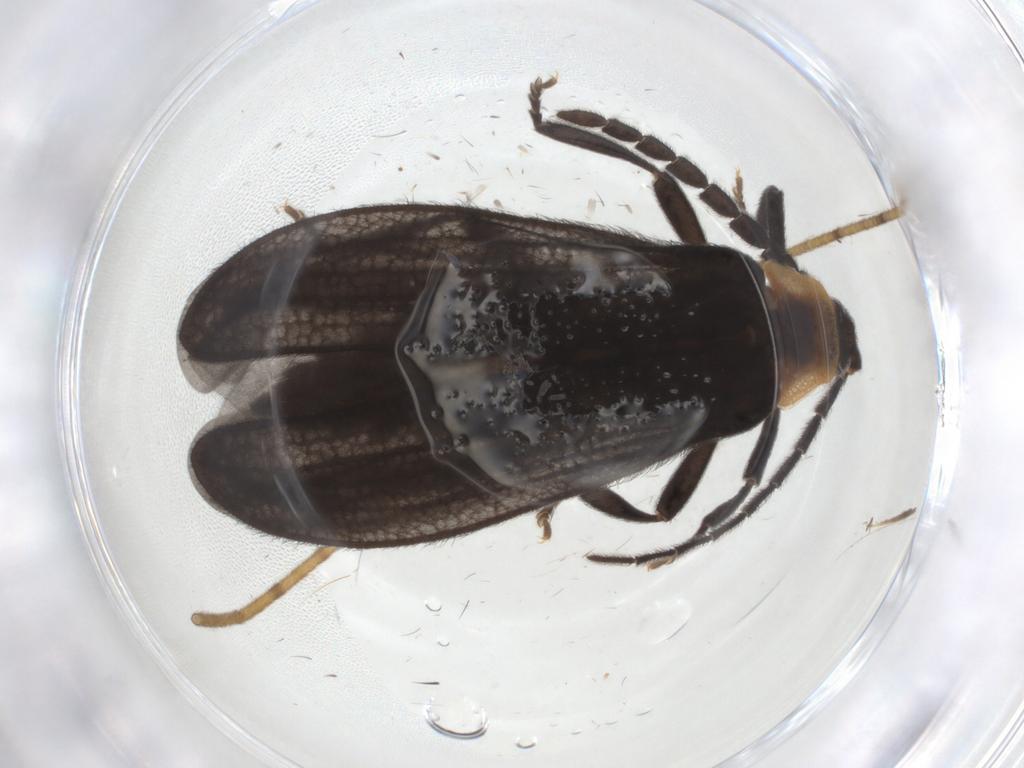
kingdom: Animalia
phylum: Arthropoda
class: Insecta
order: Coleoptera
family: Lycidae
